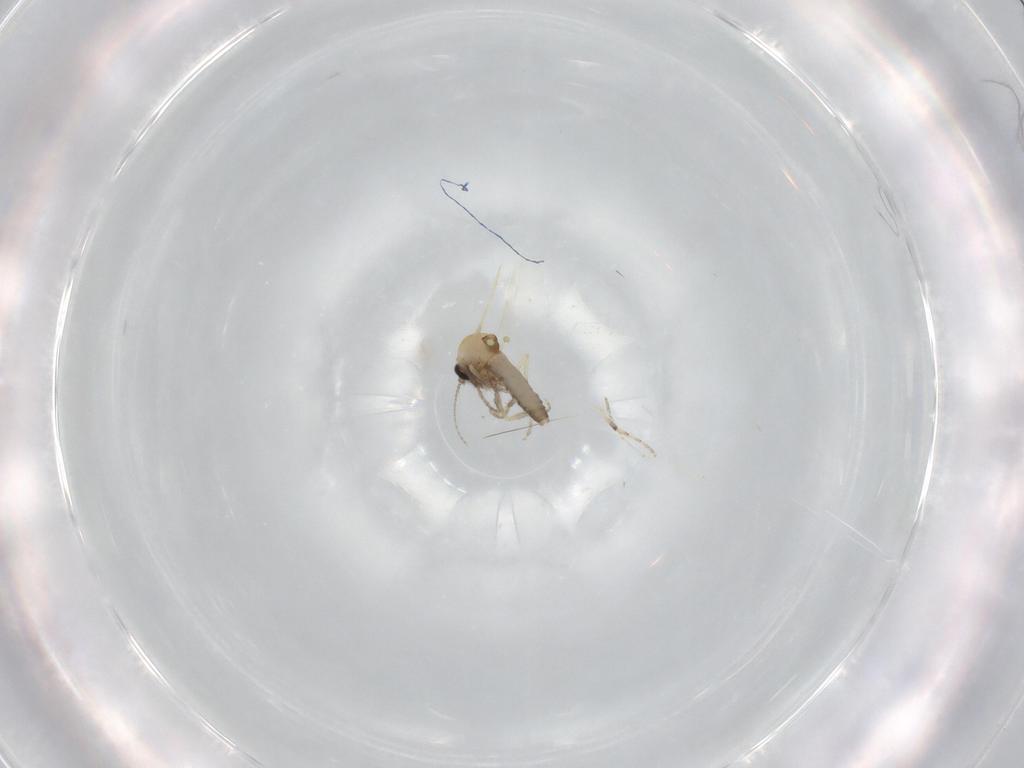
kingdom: Animalia
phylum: Arthropoda
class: Insecta
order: Diptera
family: Ceratopogonidae
